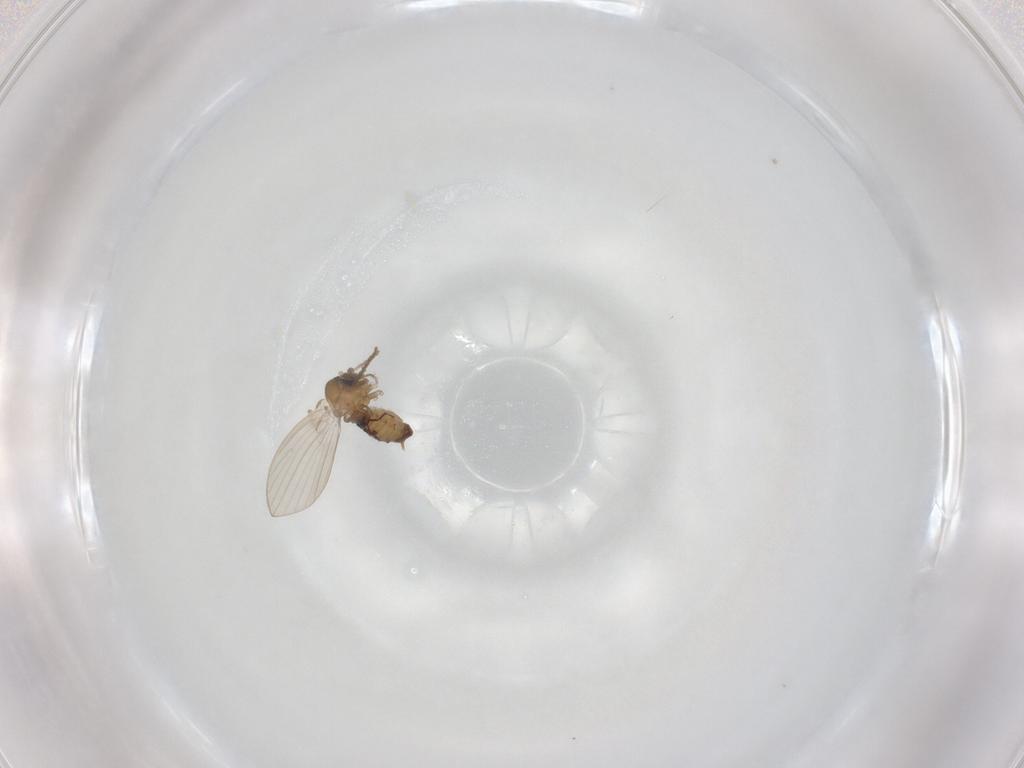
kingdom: Animalia
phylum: Arthropoda
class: Insecta
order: Diptera
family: Psychodidae
